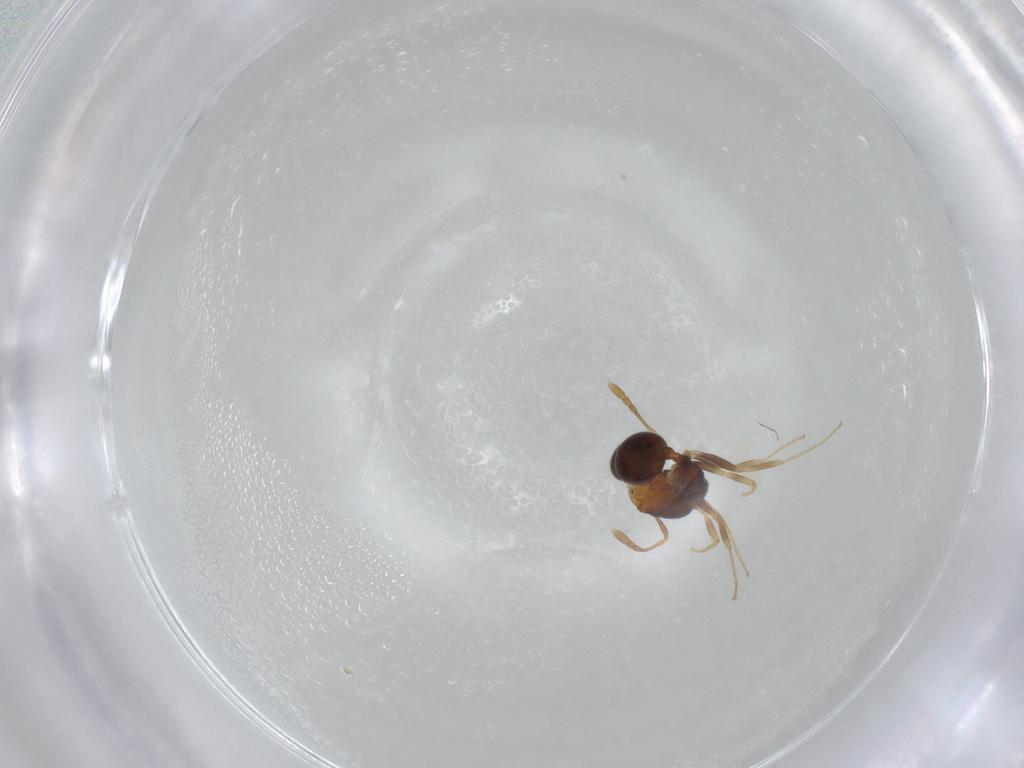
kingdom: Animalia
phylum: Arthropoda
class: Insecta
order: Hymenoptera
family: Formicidae
